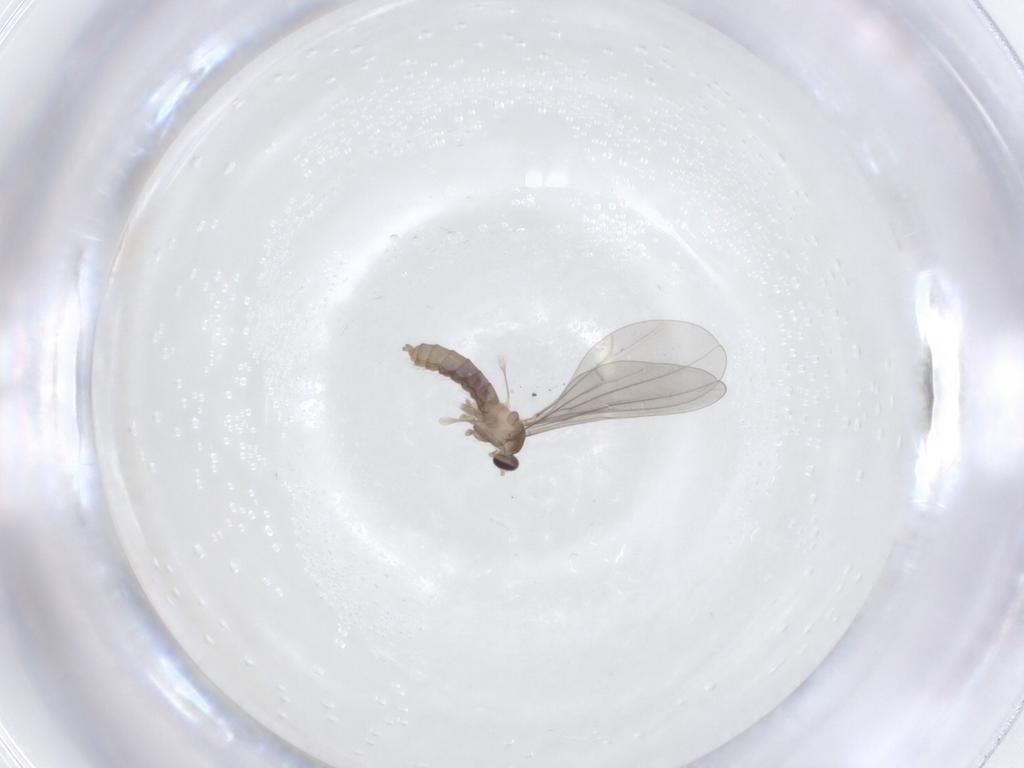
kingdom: Animalia
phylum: Arthropoda
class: Insecta
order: Diptera
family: Cecidomyiidae
